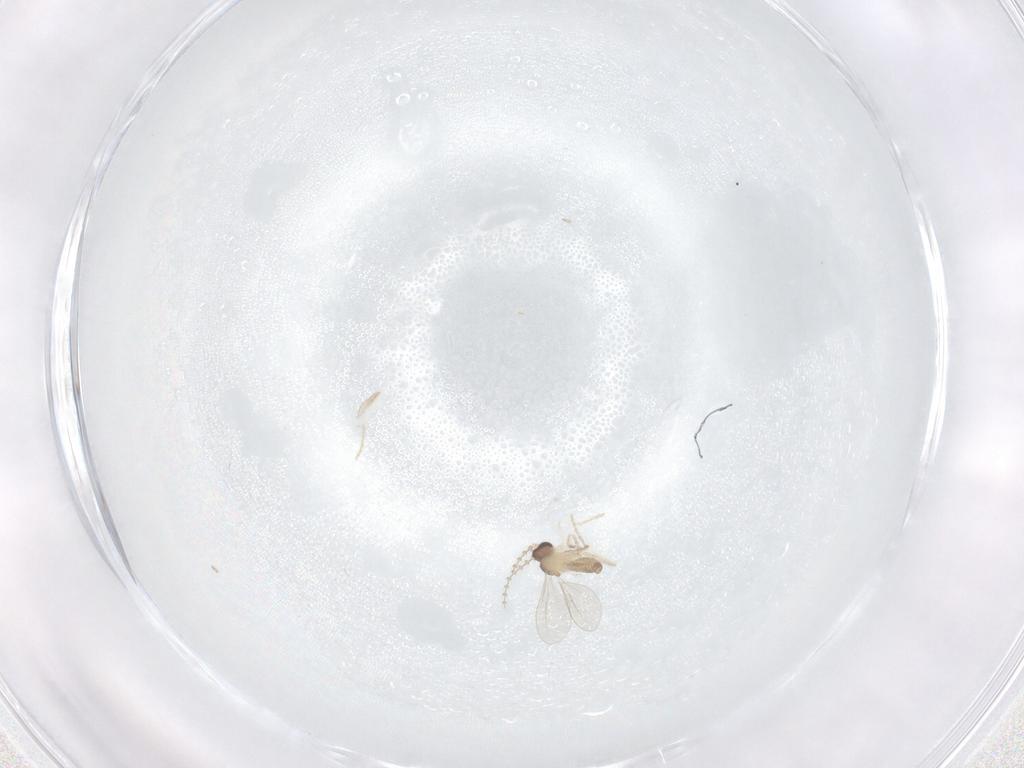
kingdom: Animalia
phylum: Arthropoda
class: Insecta
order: Diptera
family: Cecidomyiidae
